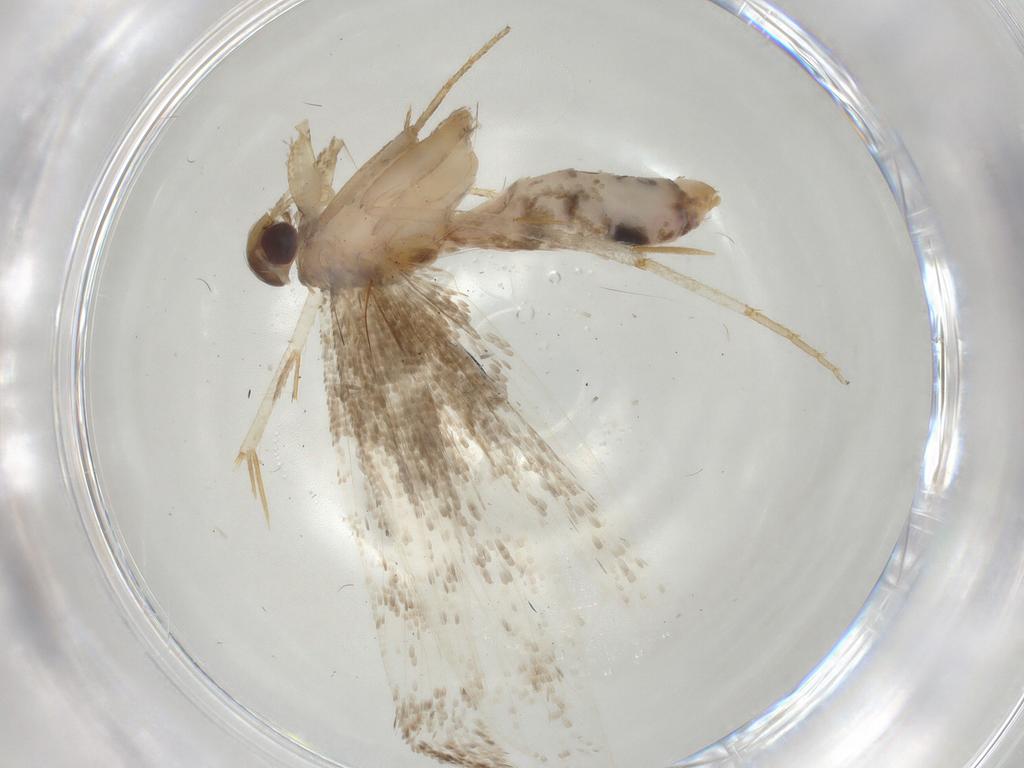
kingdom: Animalia
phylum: Arthropoda
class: Insecta
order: Lepidoptera
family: Gelechiidae
